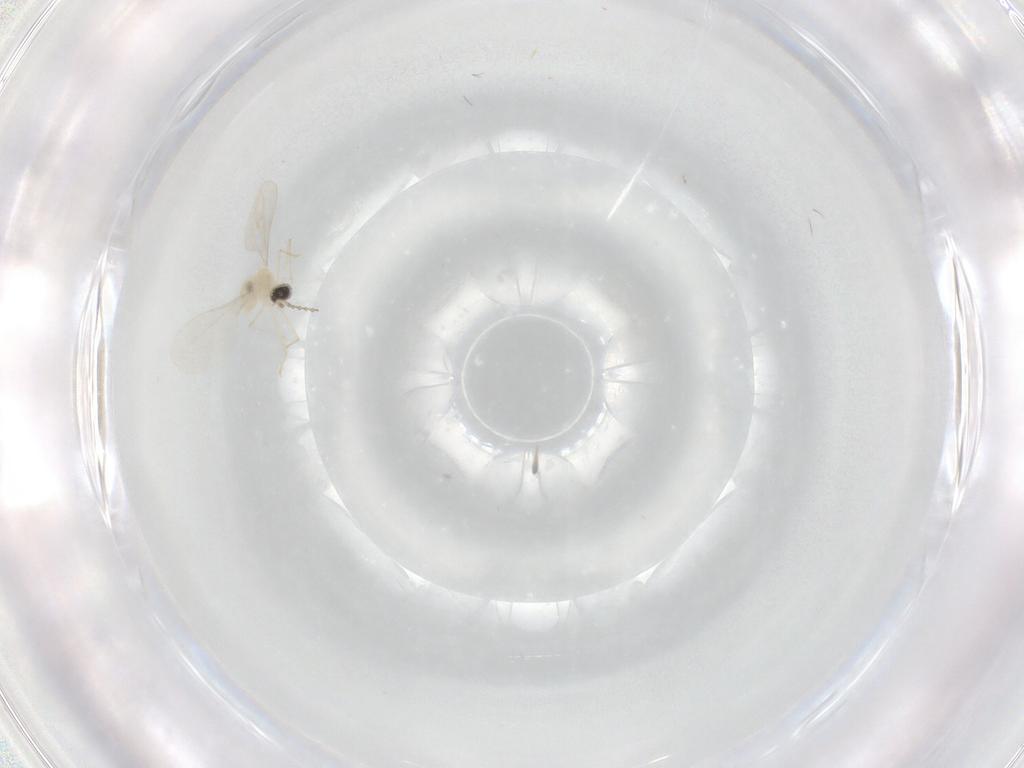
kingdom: Animalia
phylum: Arthropoda
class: Insecta
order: Diptera
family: Cecidomyiidae
